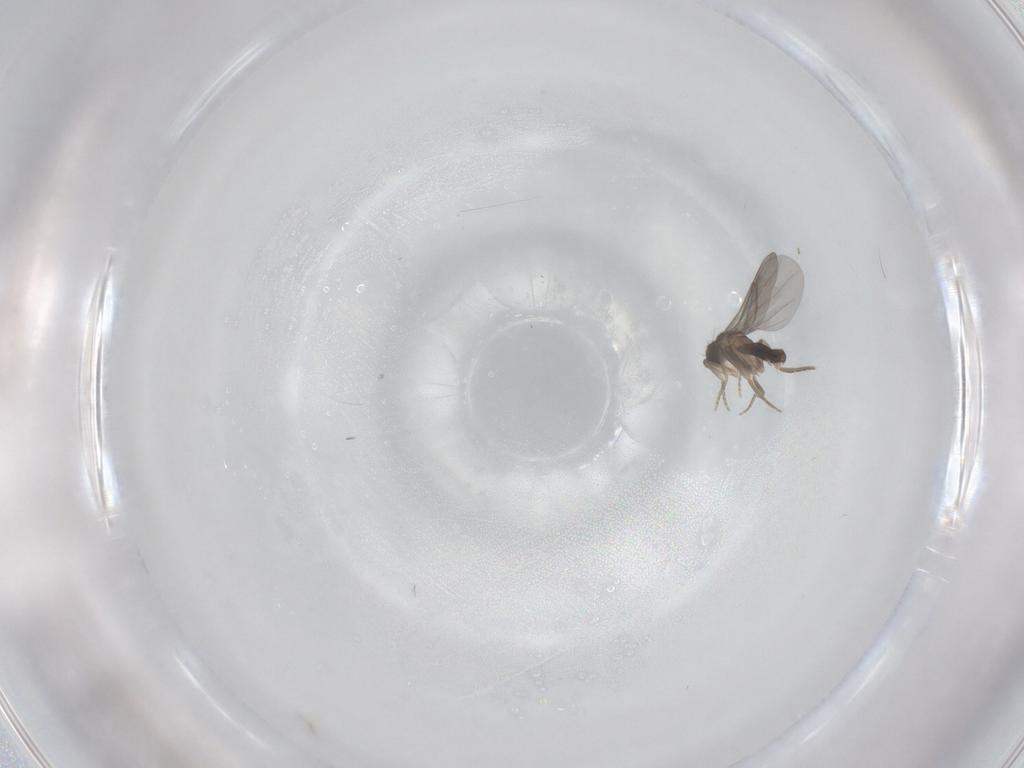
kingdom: Animalia
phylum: Arthropoda
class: Insecta
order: Diptera
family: Phoridae
